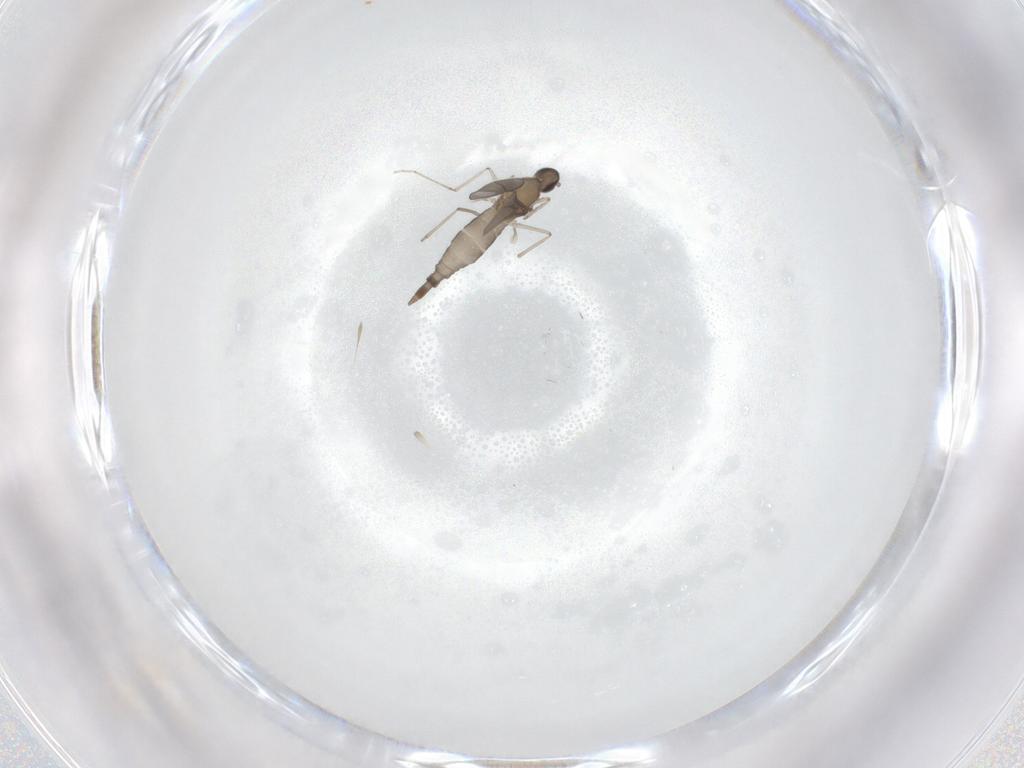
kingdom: Animalia
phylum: Arthropoda
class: Insecta
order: Diptera
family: Cecidomyiidae
